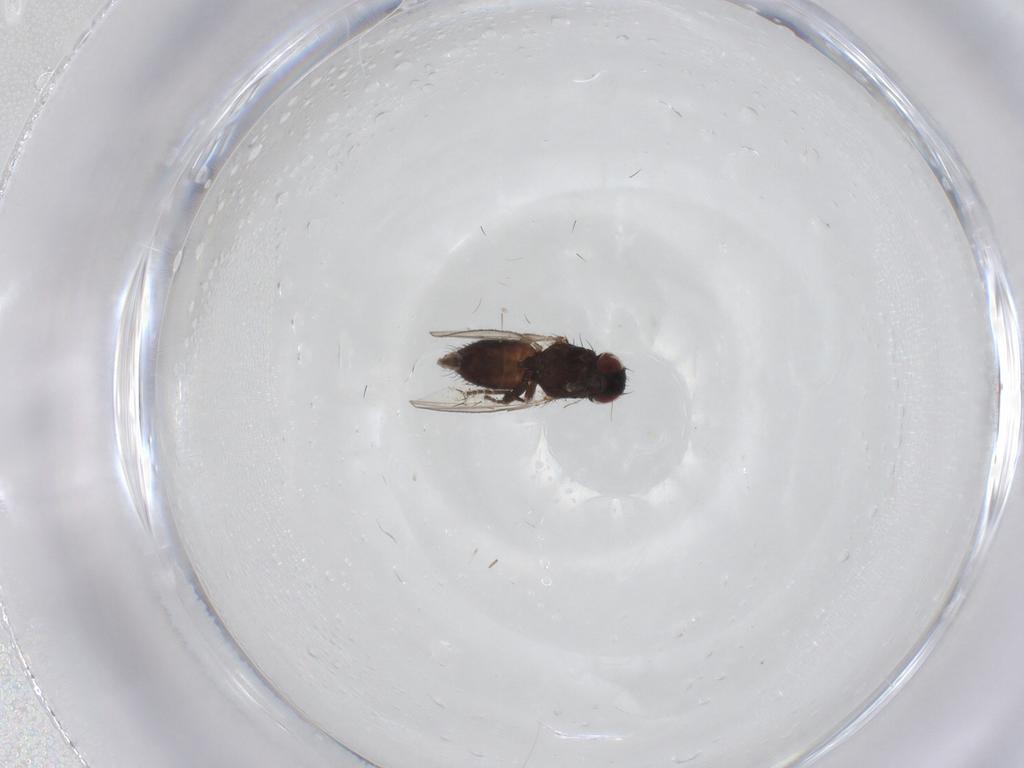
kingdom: Animalia
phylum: Arthropoda
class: Insecta
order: Diptera
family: Milichiidae
